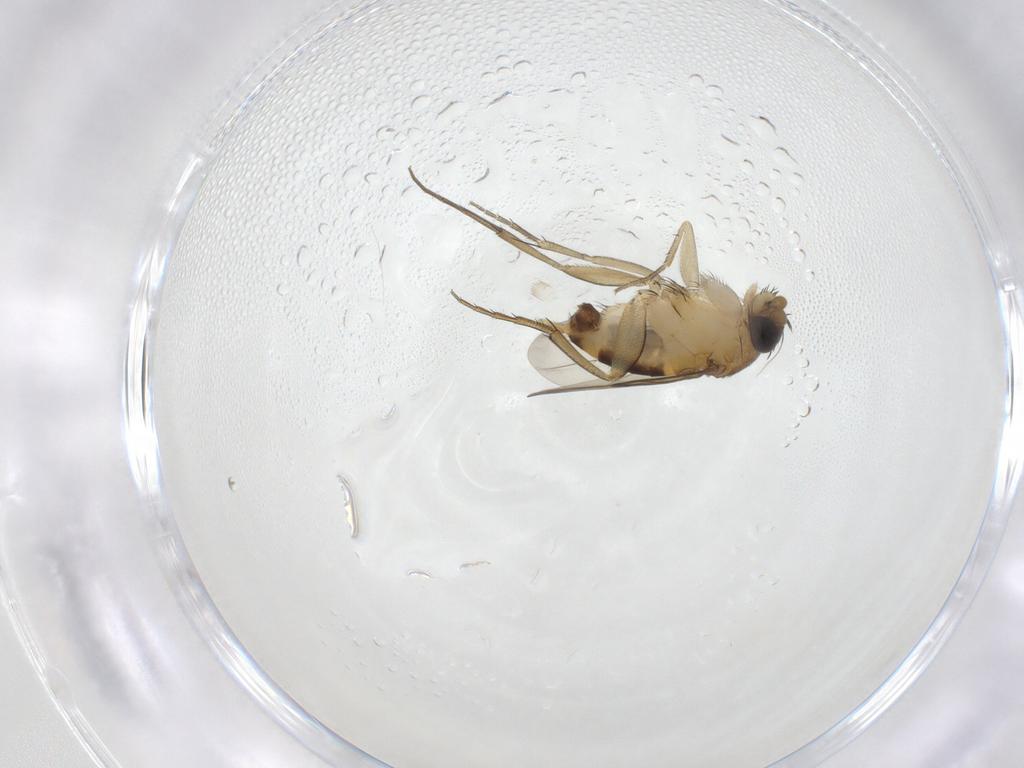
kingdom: Animalia
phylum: Arthropoda
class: Insecta
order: Diptera
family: Phoridae
